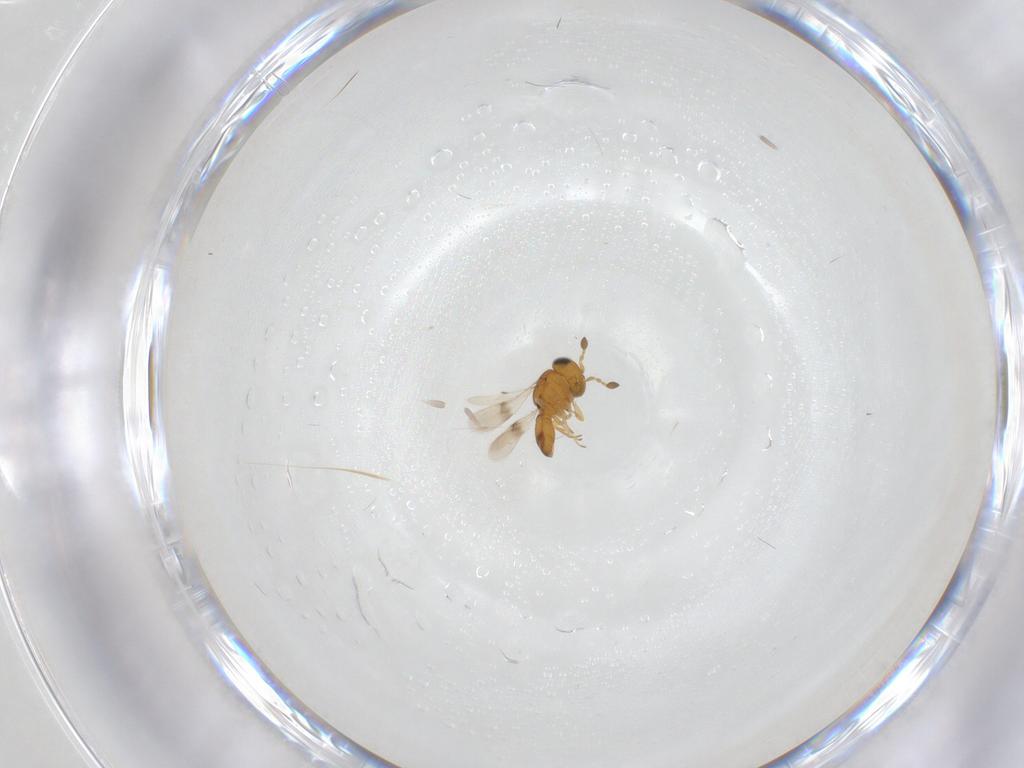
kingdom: Animalia
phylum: Arthropoda
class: Insecta
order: Hymenoptera
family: Scelionidae
